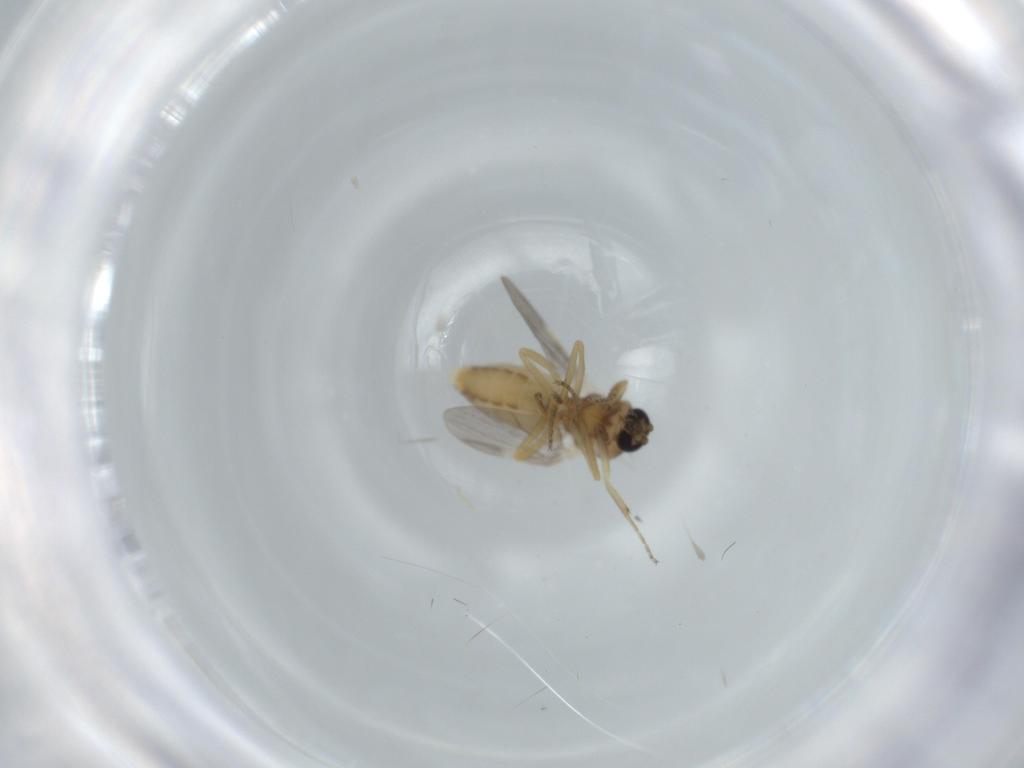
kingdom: Animalia
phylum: Arthropoda
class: Insecta
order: Diptera
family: Ceratopogonidae
